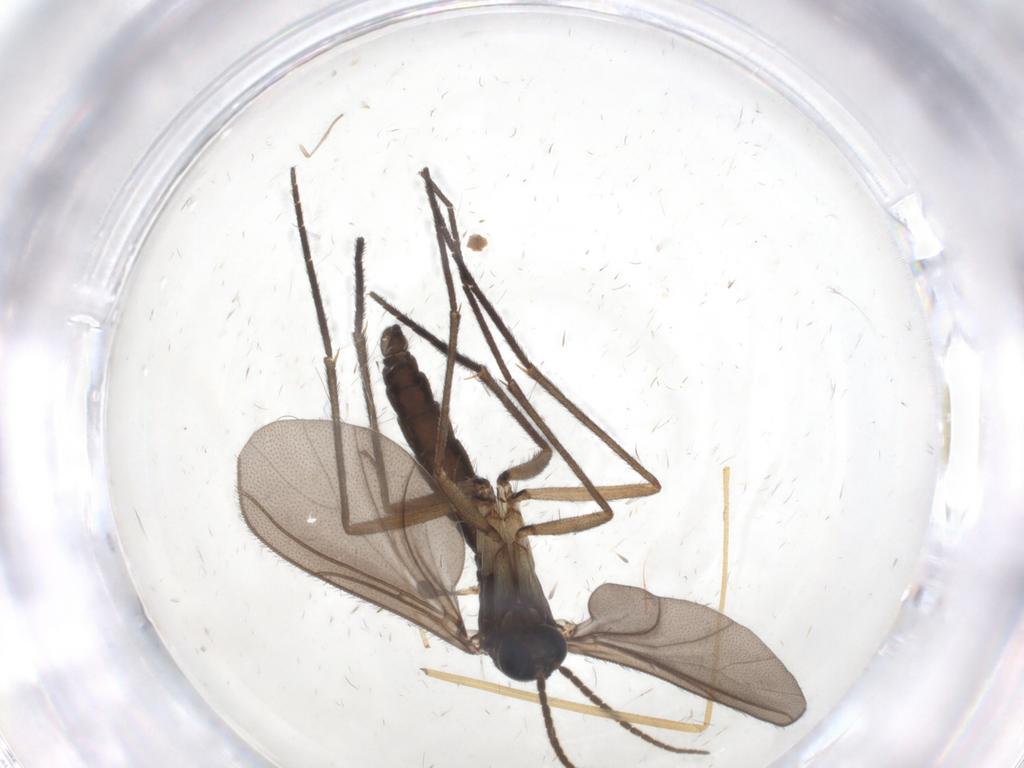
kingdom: Animalia
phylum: Arthropoda
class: Insecta
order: Diptera
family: Sciaridae
